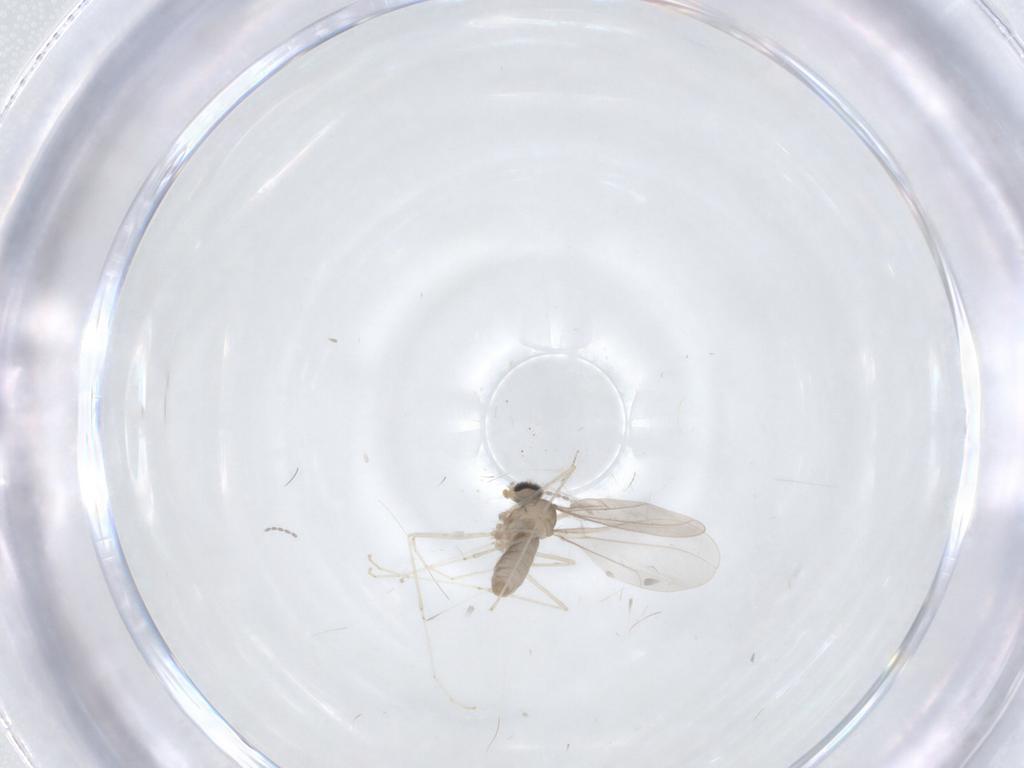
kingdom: Animalia
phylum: Arthropoda
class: Insecta
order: Diptera
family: Cecidomyiidae
